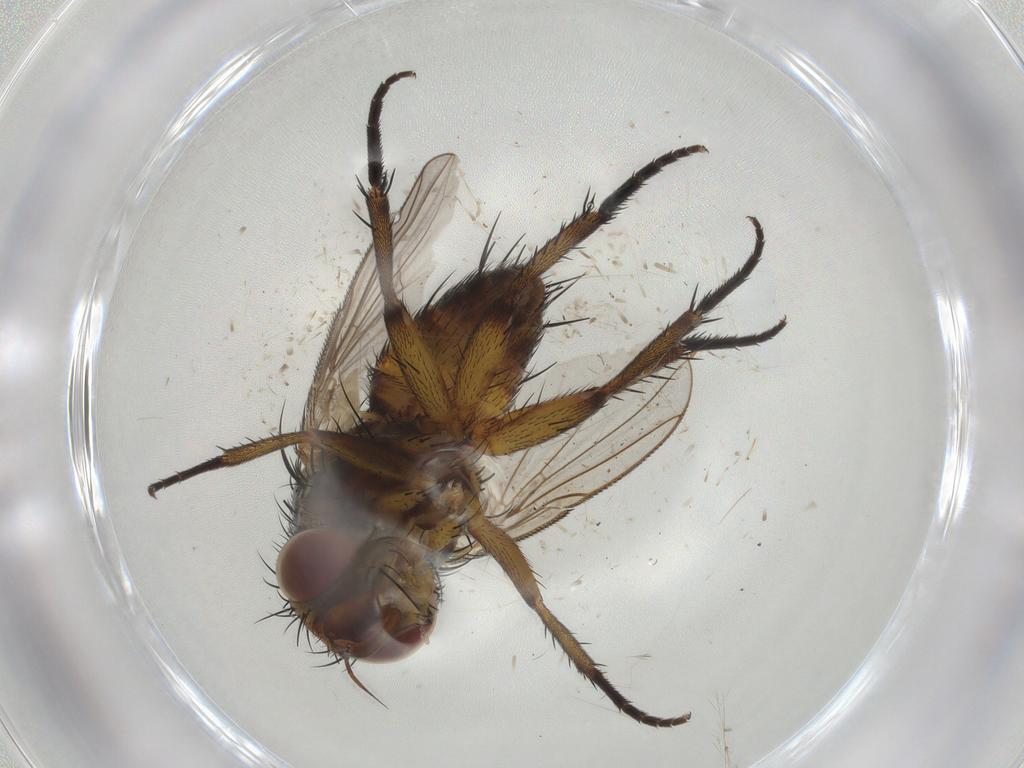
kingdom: Animalia
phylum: Arthropoda
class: Insecta
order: Diptera
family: Tachinidae
